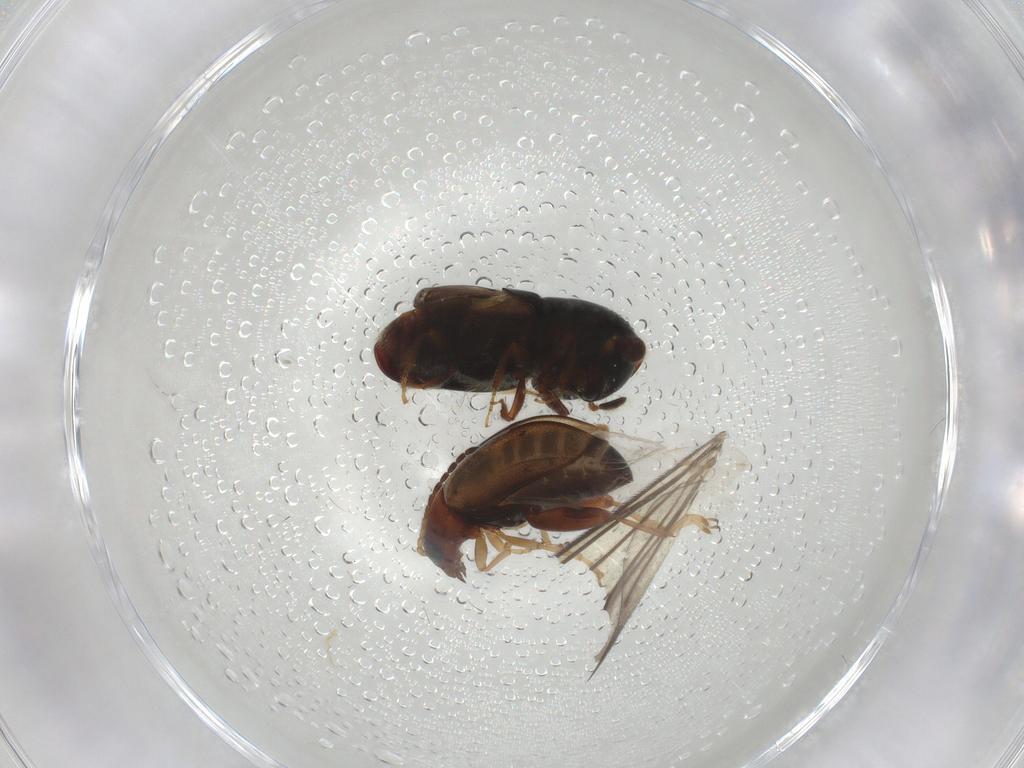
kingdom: Animalia
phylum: Arthropoda
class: Insecta
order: Coleoptera
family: Chrysomelidae
